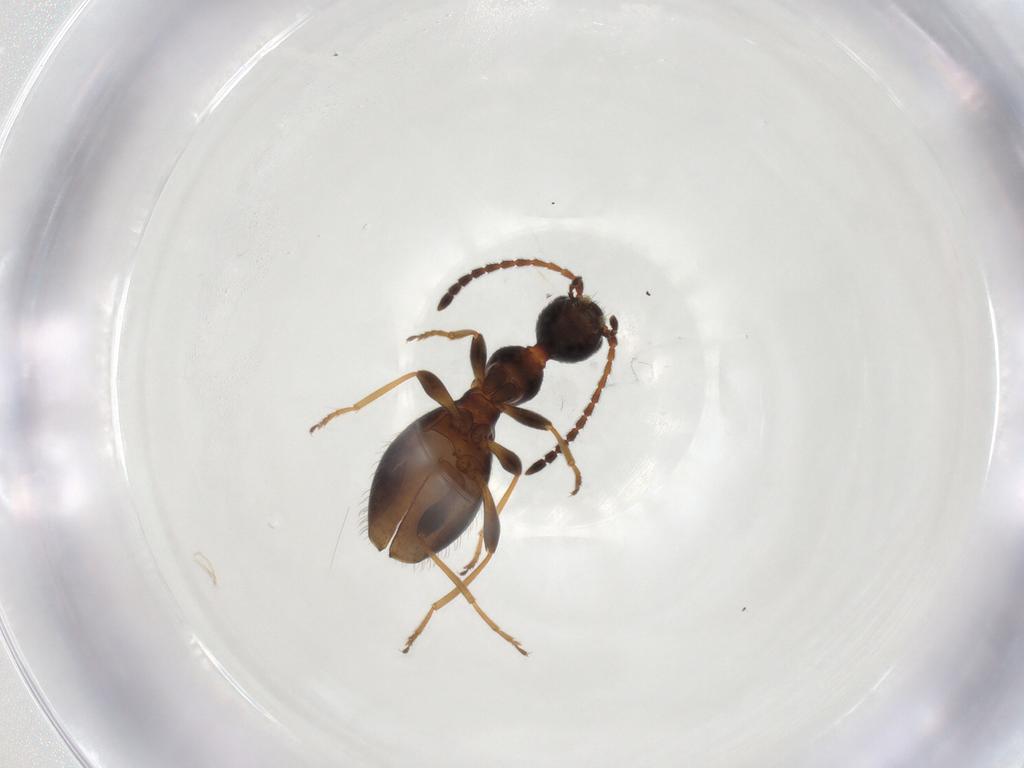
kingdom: Animalia
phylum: Arthropoda
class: Insecta
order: Coleoptera
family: Anthicidae
